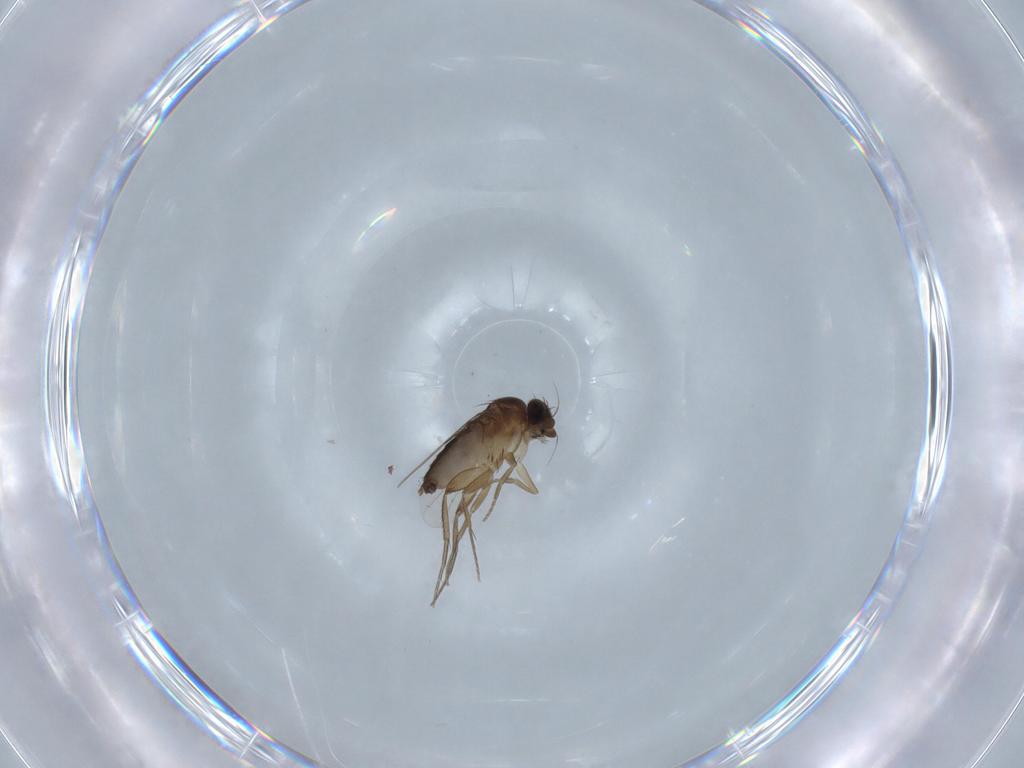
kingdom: Animalia
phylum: Arthropoda
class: Insecta
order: Diptera
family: Phoridae
